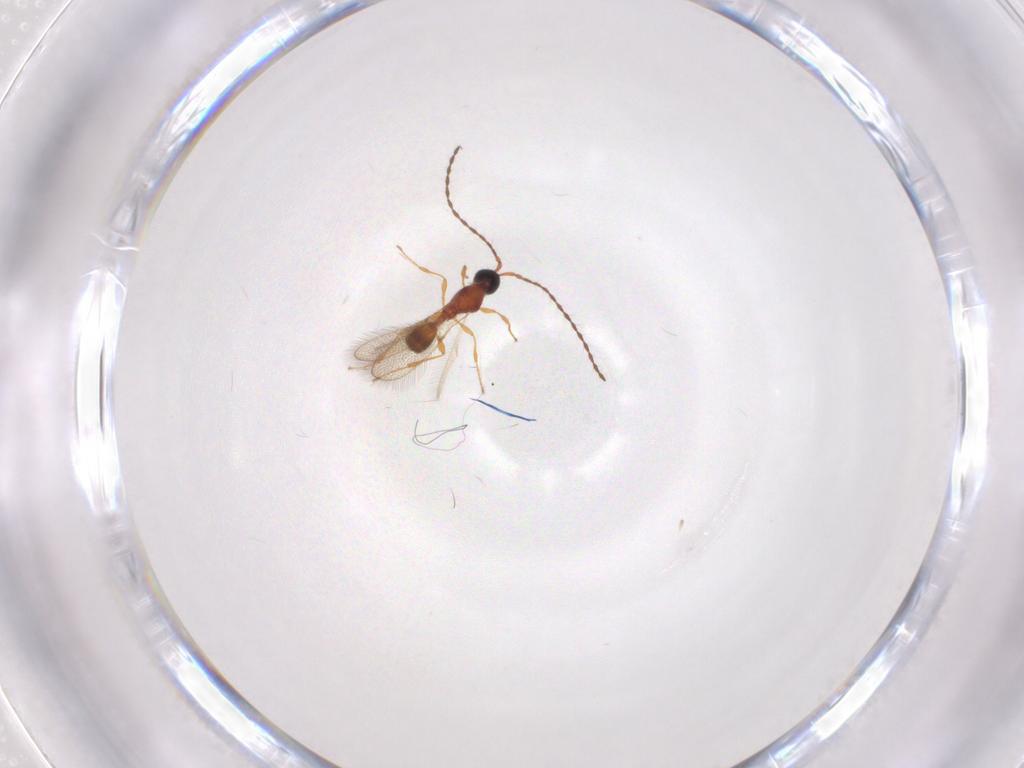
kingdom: Animalia
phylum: Arthropoda
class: Insecta
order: Hymenoptera
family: Diapriidae
